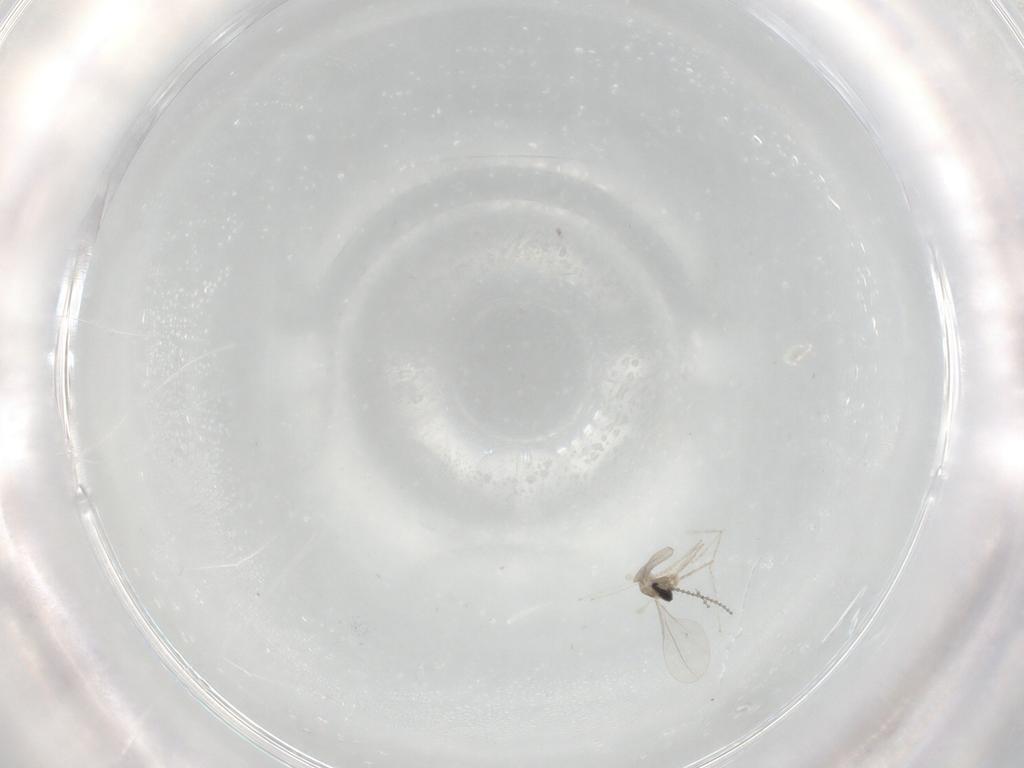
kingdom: Animalia
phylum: Arthropoda
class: Insecta
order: Diptera
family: Cecidomyiidae
